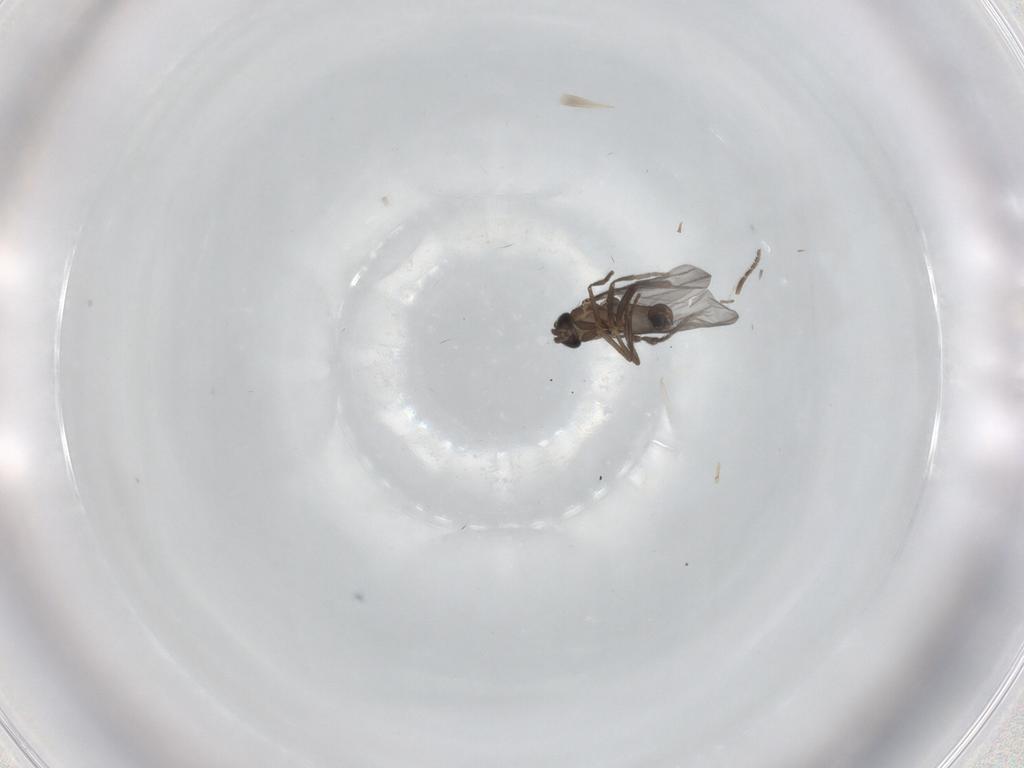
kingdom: Animalia
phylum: Arthropoda
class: Insecta
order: Diptera
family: Phoridae
